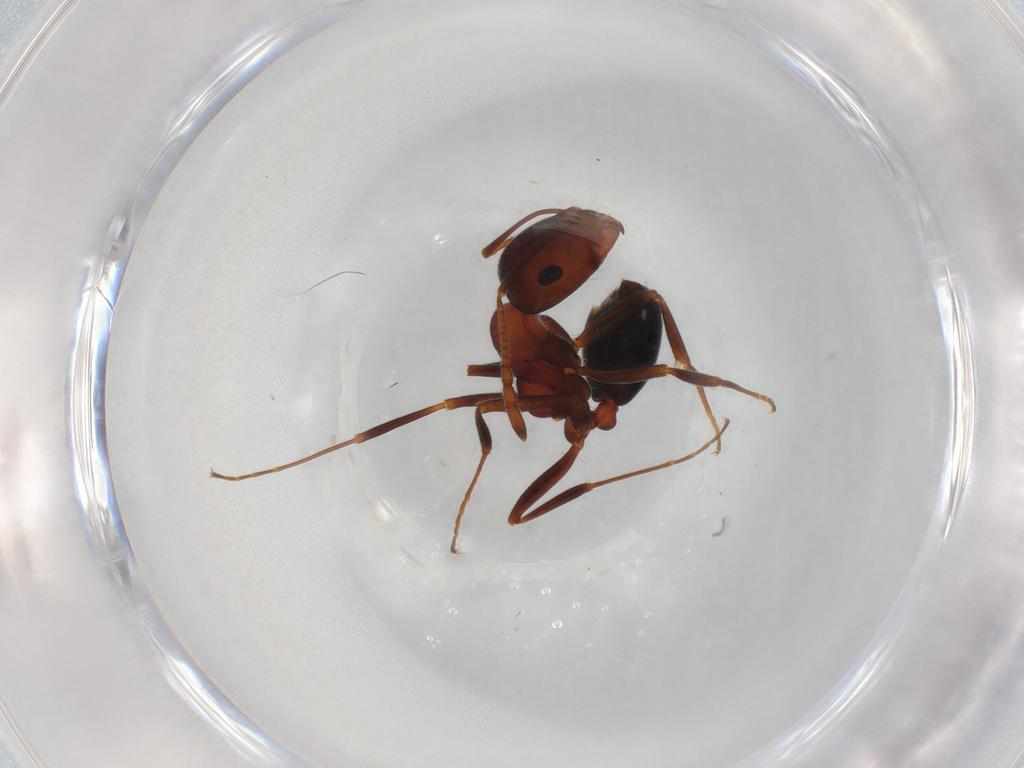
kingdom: Animalia
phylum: Arthropoda
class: Insecta
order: Hymenoptera
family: Formicidae
